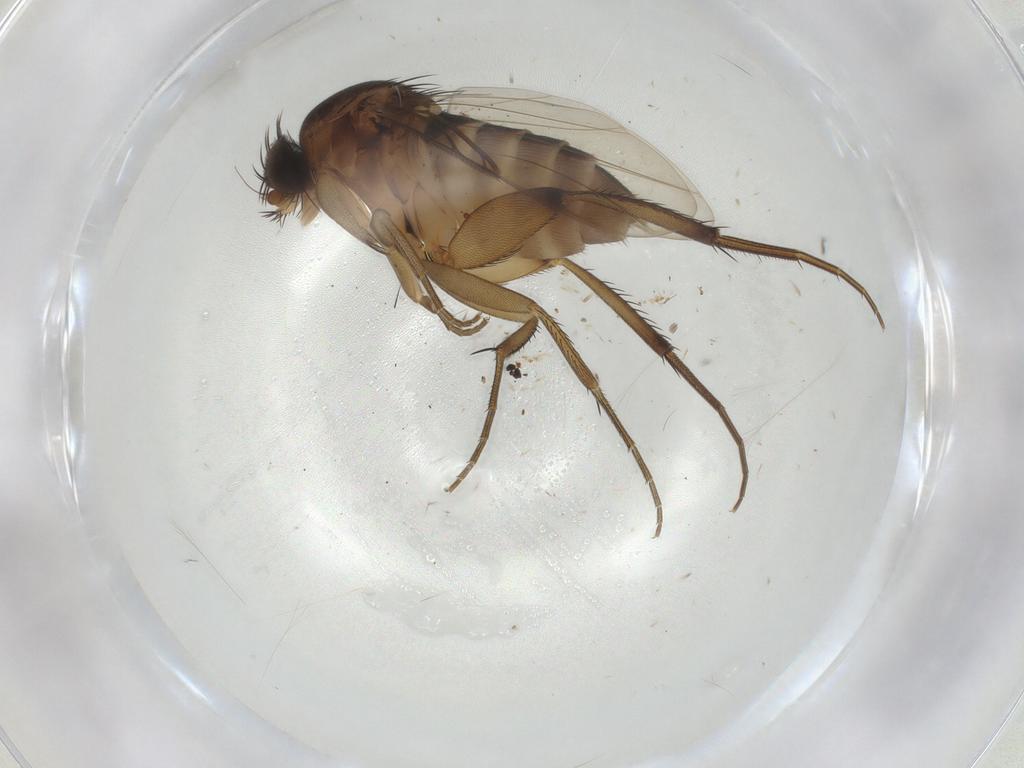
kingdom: Animalia
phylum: Arthropoda
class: Insecta
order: Diptera
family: Phoridae
